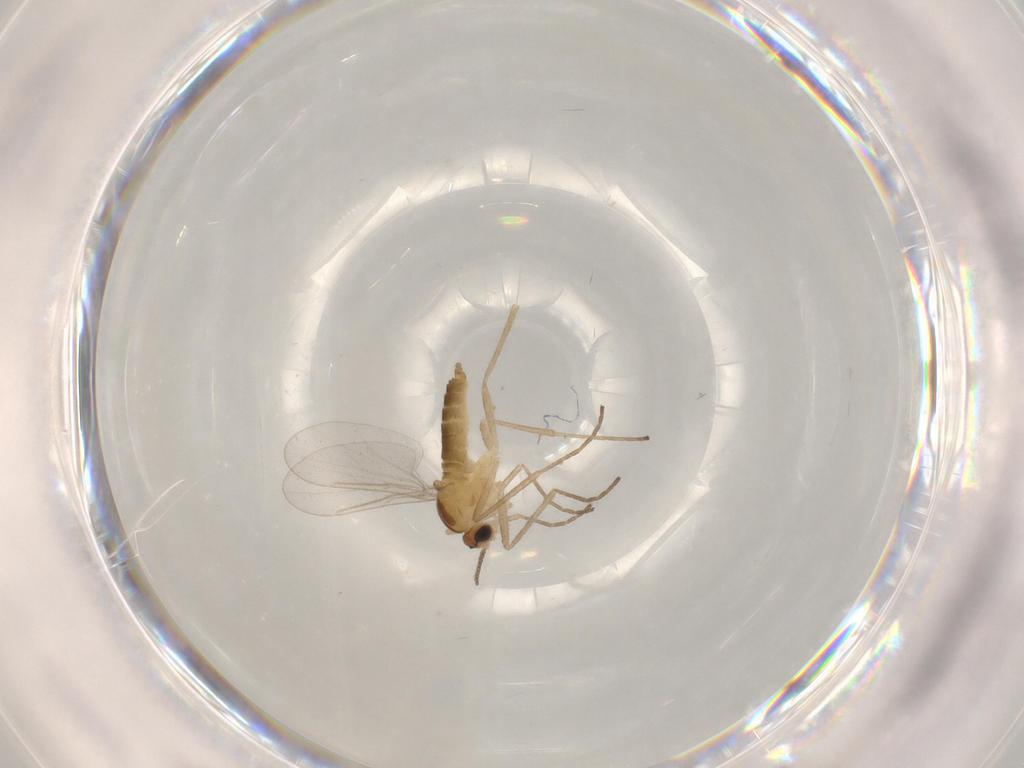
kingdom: Animalia
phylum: Arthropoda
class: Insecta
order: Diptera
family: Cecidomyiidae
